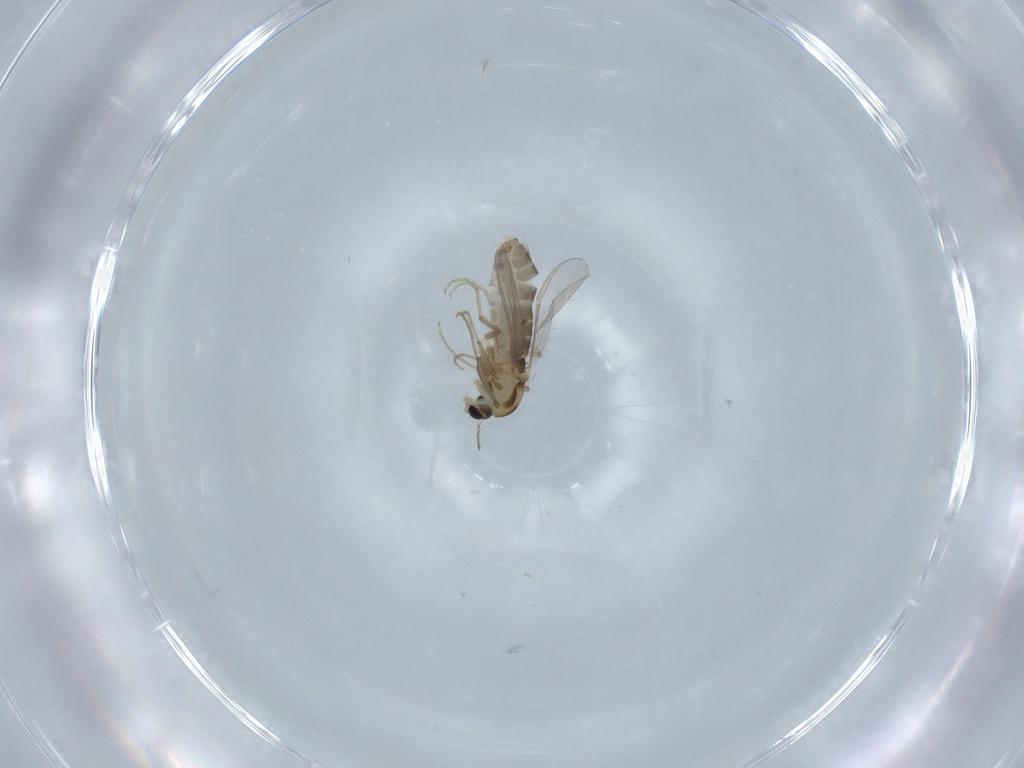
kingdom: Animalia
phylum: Arthropoda
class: Insecta
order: Diptera
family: Chironomidae
